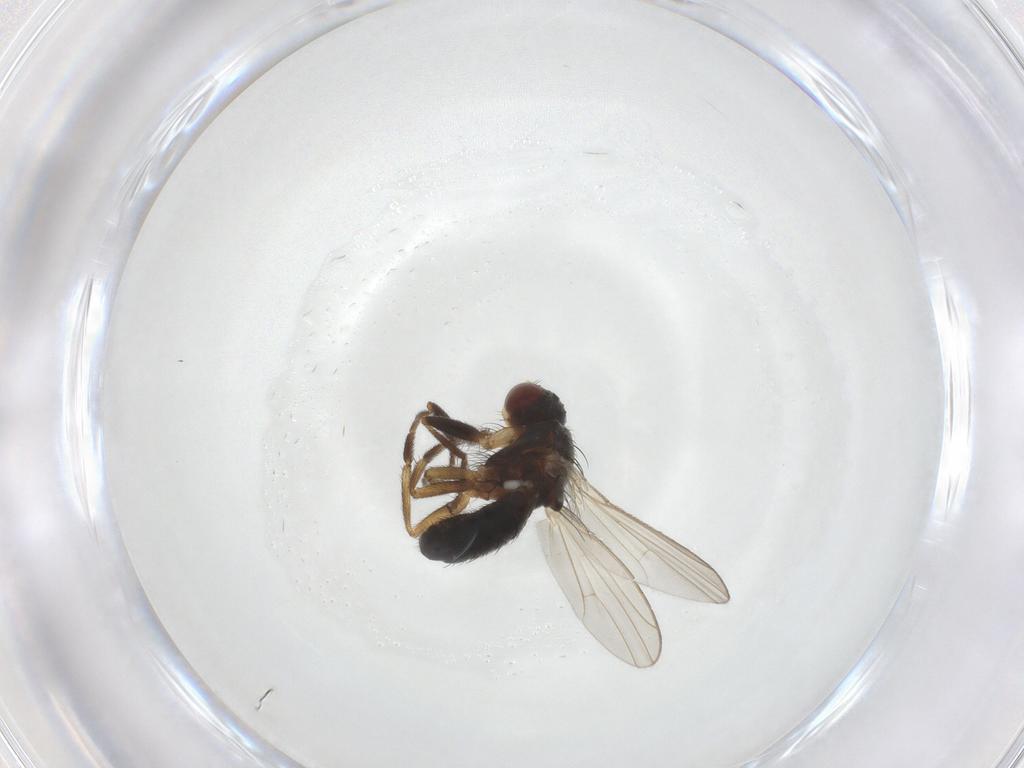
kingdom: Animalia
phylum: Arthropoda
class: Insecta
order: Diptera
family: Heleomyzidae
